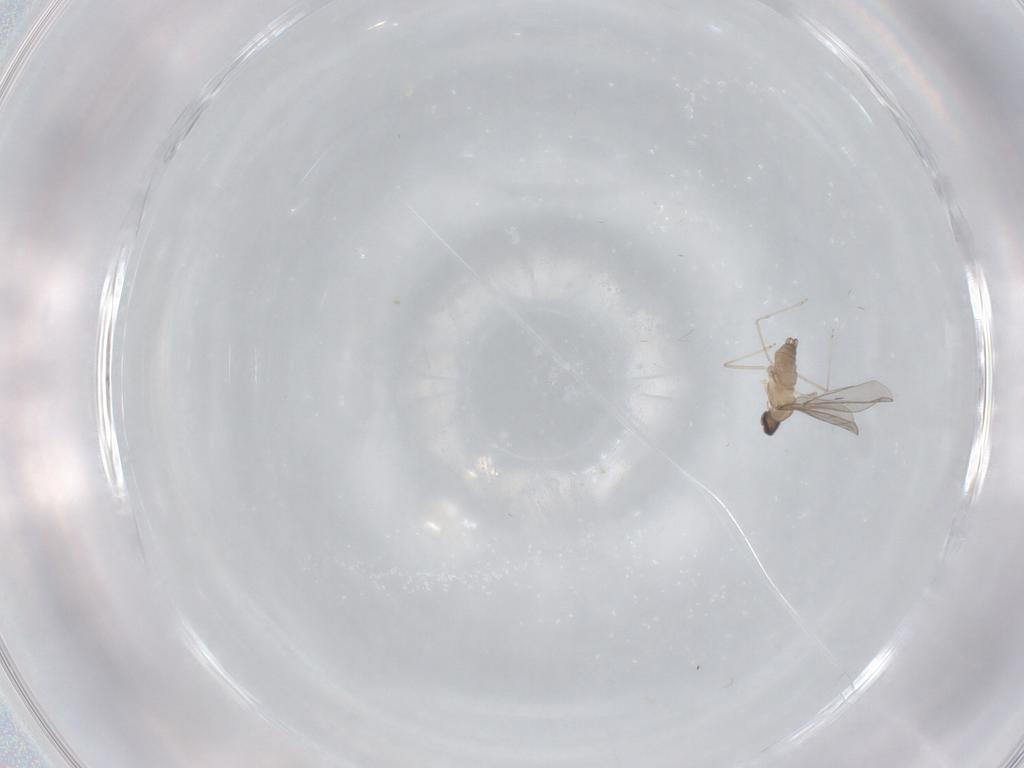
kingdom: Animalia
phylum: Arthropoda
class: Insecta
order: Diptera
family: Cecidomyiidae
